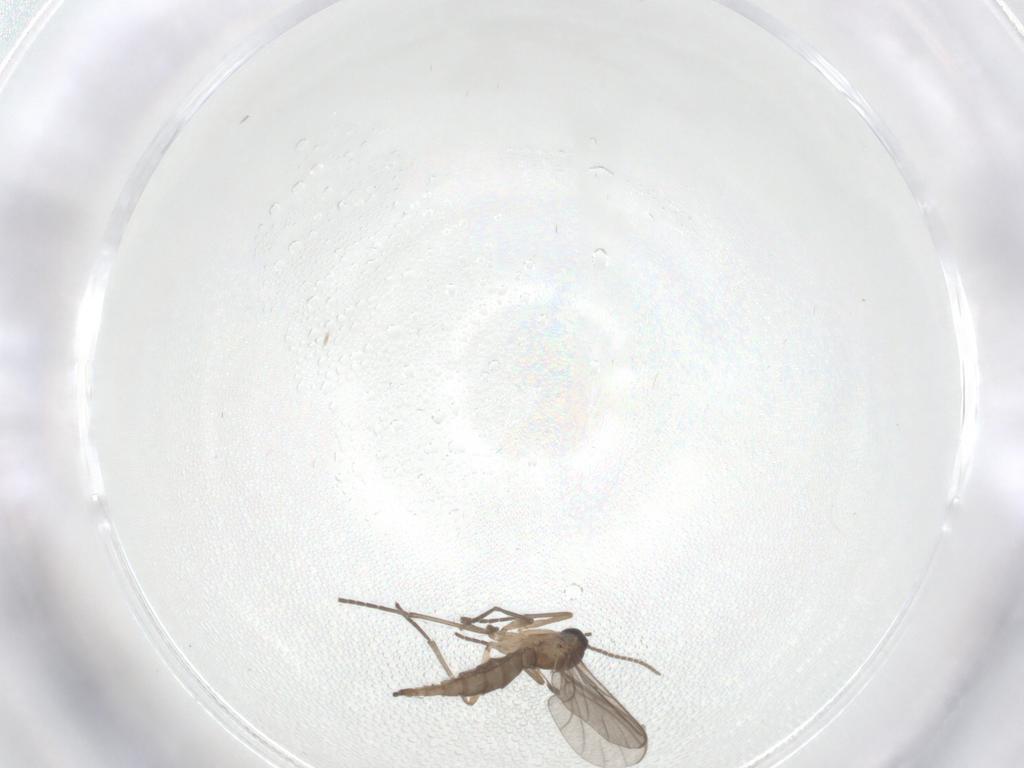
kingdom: Animalia
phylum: Arthropoda
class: Insecta
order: Diptera
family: Sciaridae
